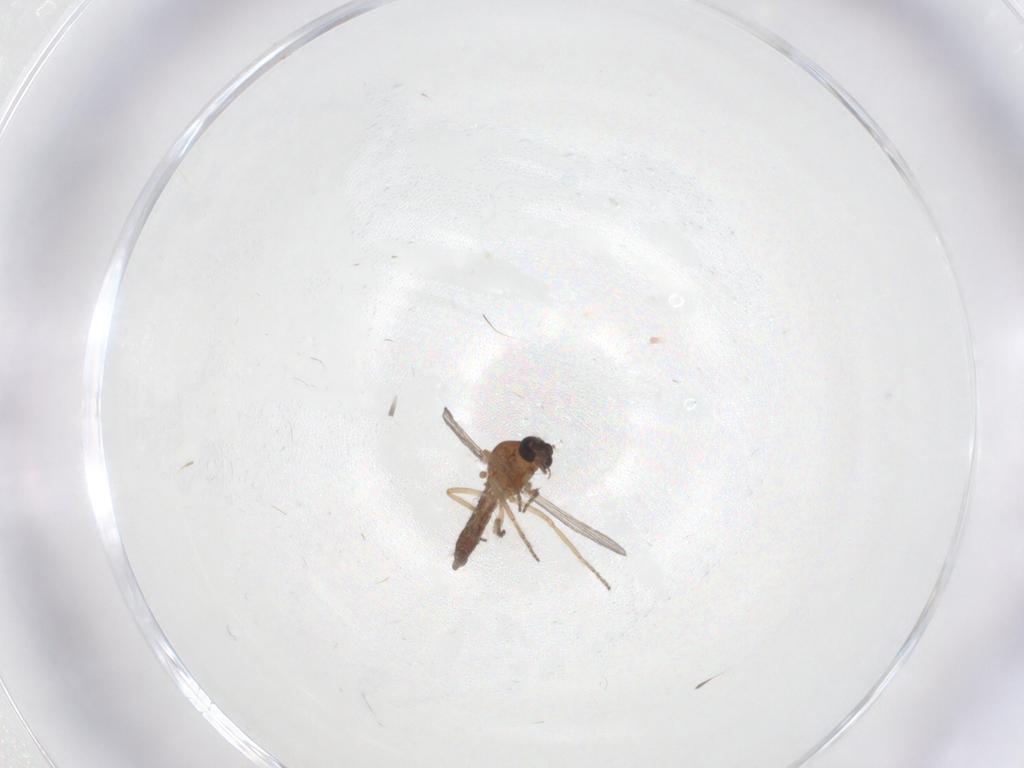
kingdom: Animalia
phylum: Arthropoda
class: Insecta
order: Diptera
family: Ceratopogonidae
